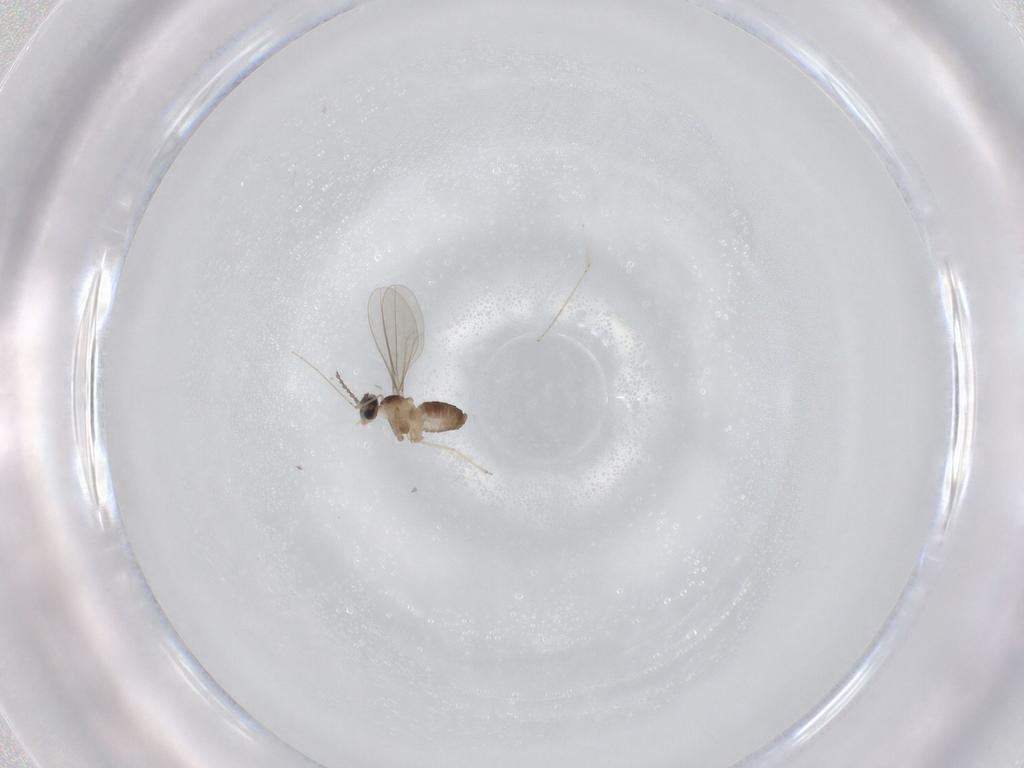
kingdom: Animalia
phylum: Arthropoda
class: Insecta
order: Diptera
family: Cecidomyiidae
